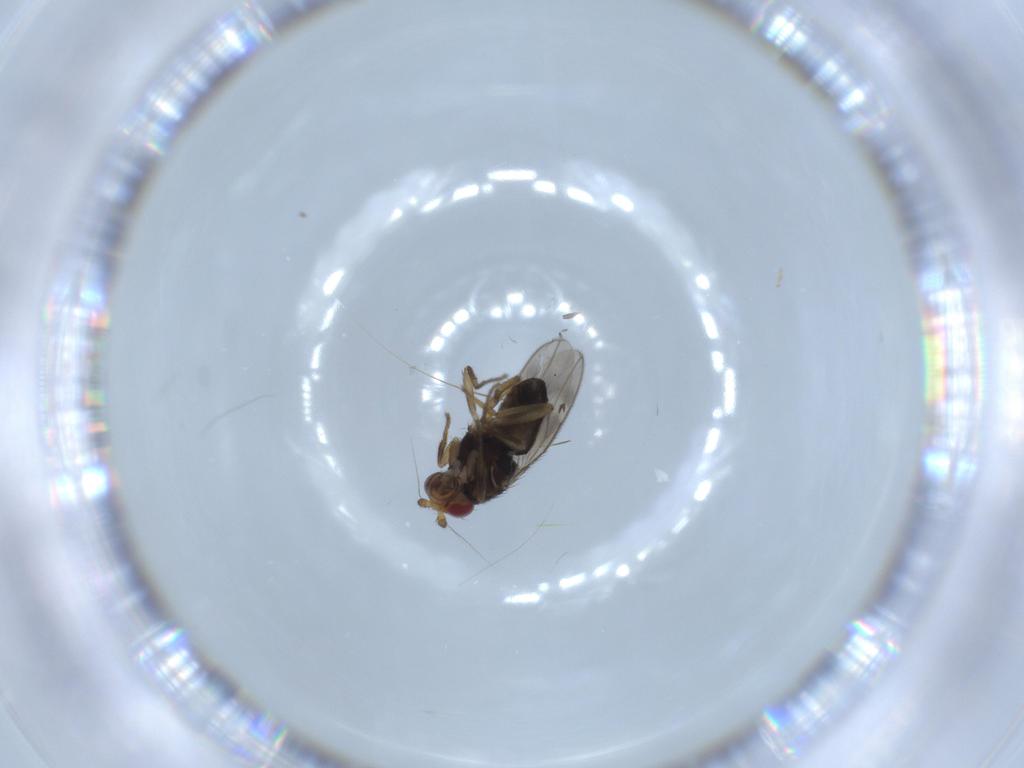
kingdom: Animalia
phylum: Arthropoda
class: Insecta
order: Diptera
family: Sphaeroceridae
